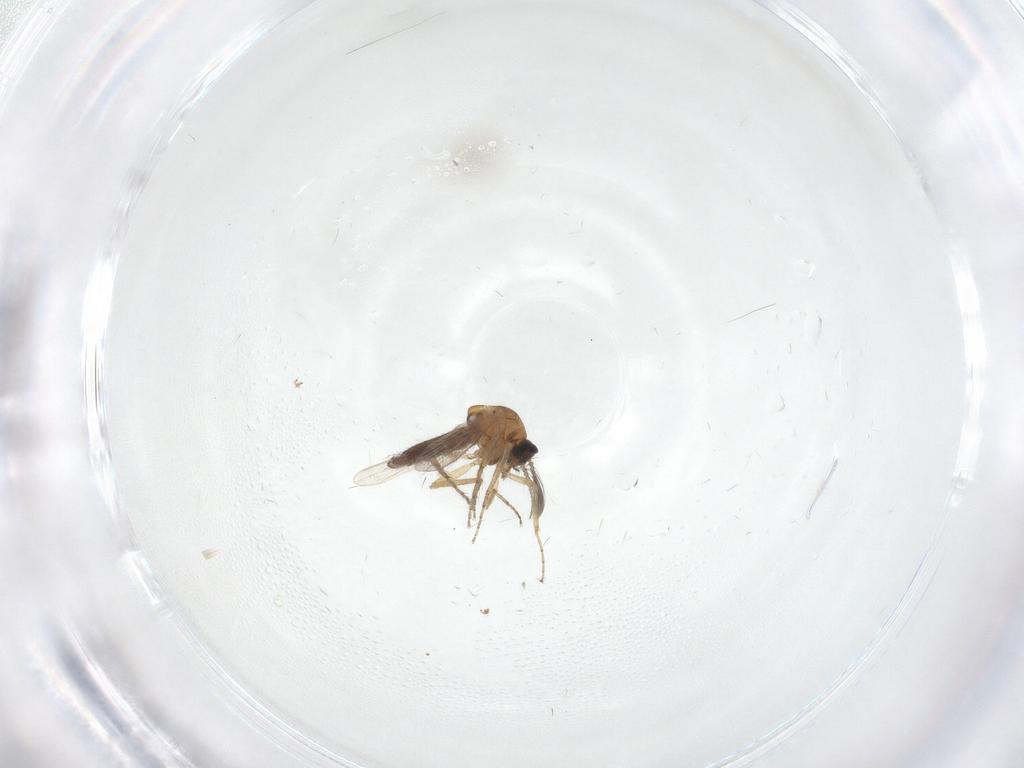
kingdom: Animalia
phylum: Arthropoda
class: Insecta
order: Diptera
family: Ceratopogonidae
